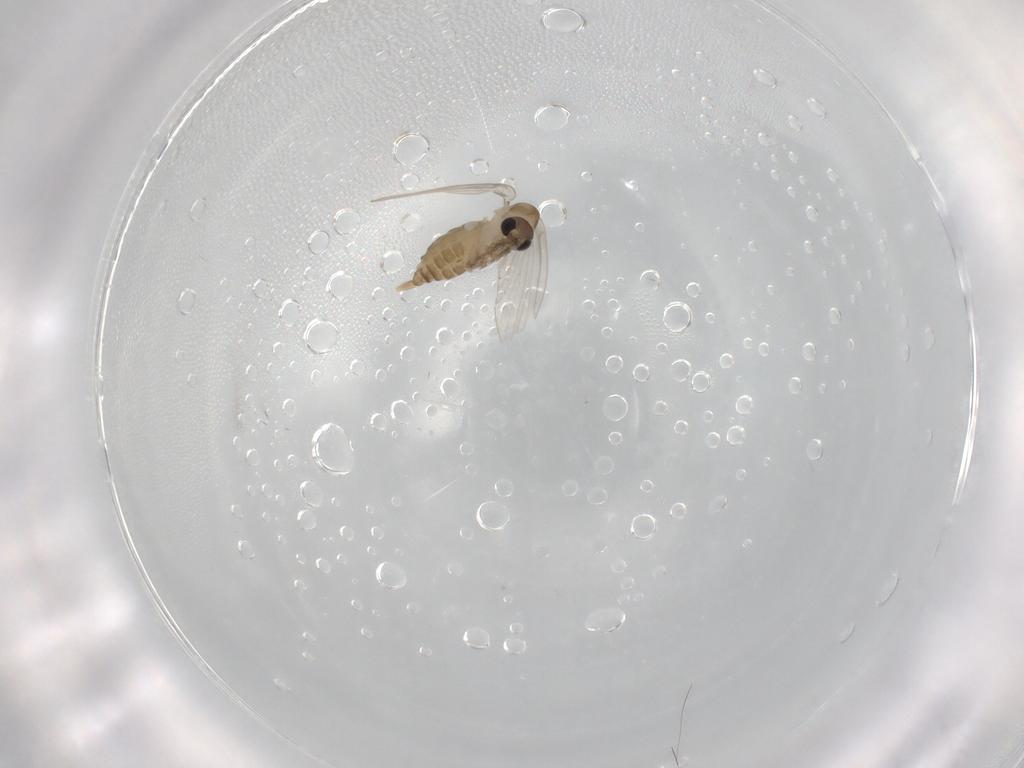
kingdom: Animalia
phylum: Arthropoda
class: Insecta
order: Diptera
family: Psychodidae
